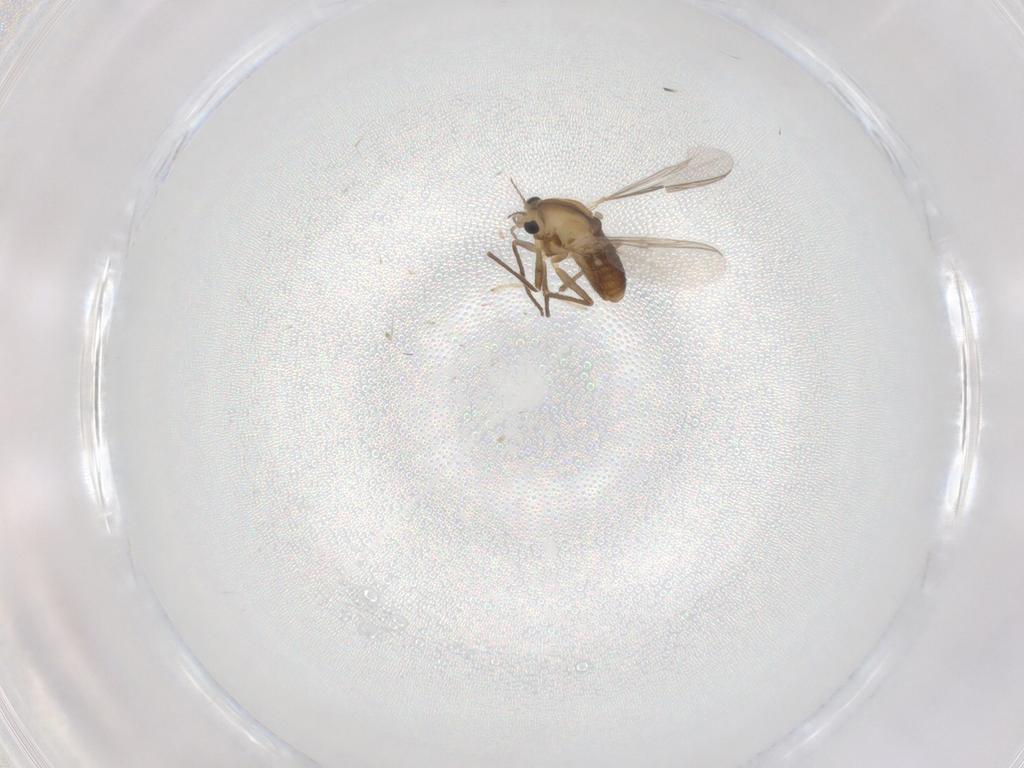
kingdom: Animalia
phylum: Arthropoda
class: Insecta
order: Diptera
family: Chironomidae
